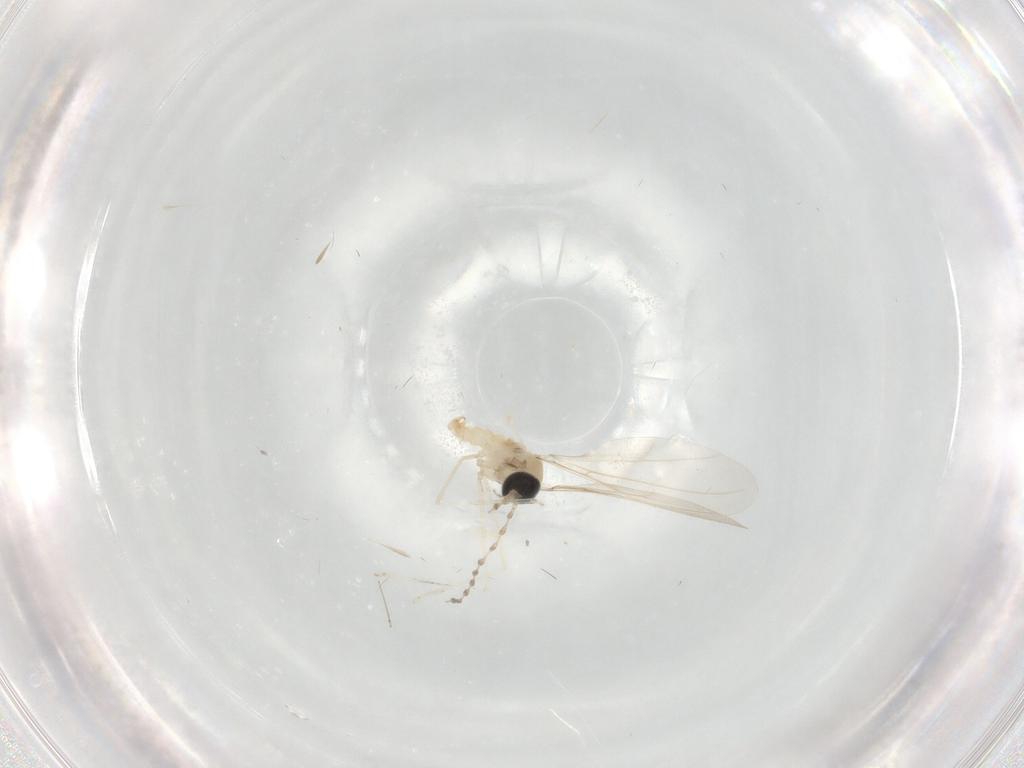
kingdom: Animalia
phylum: Arthropoda
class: Insecta
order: Diptera
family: Cecidomyiidae
